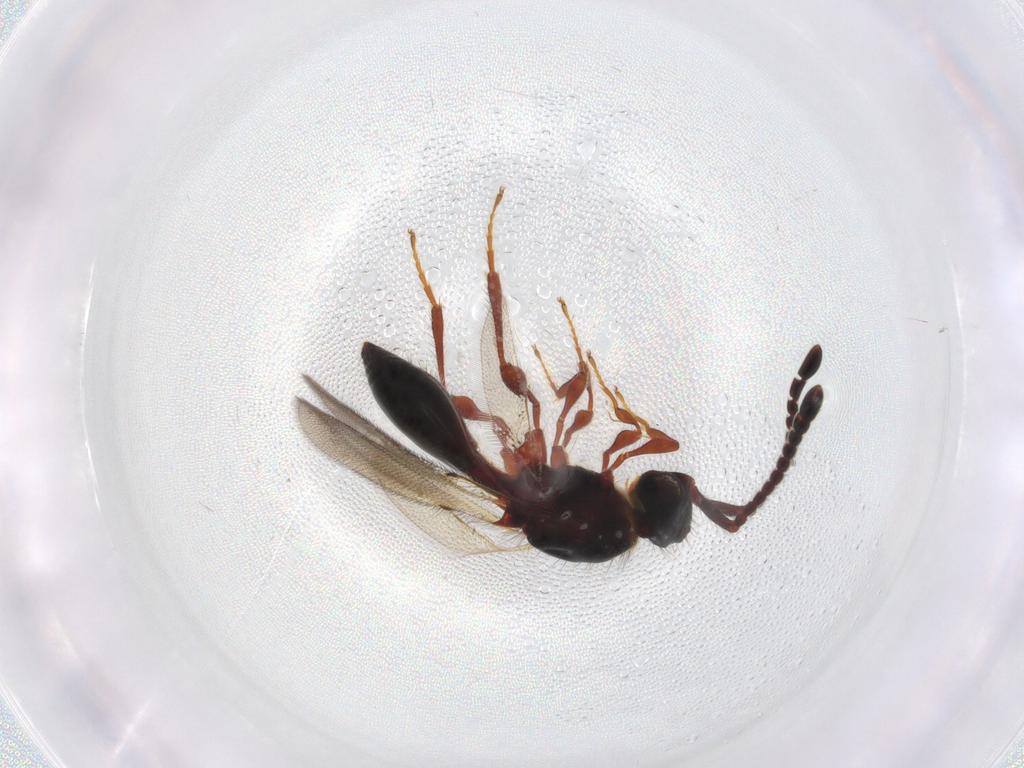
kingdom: Animalia
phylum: Arthropoda
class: Insecta
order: Hymenoptera
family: Diapriidae
